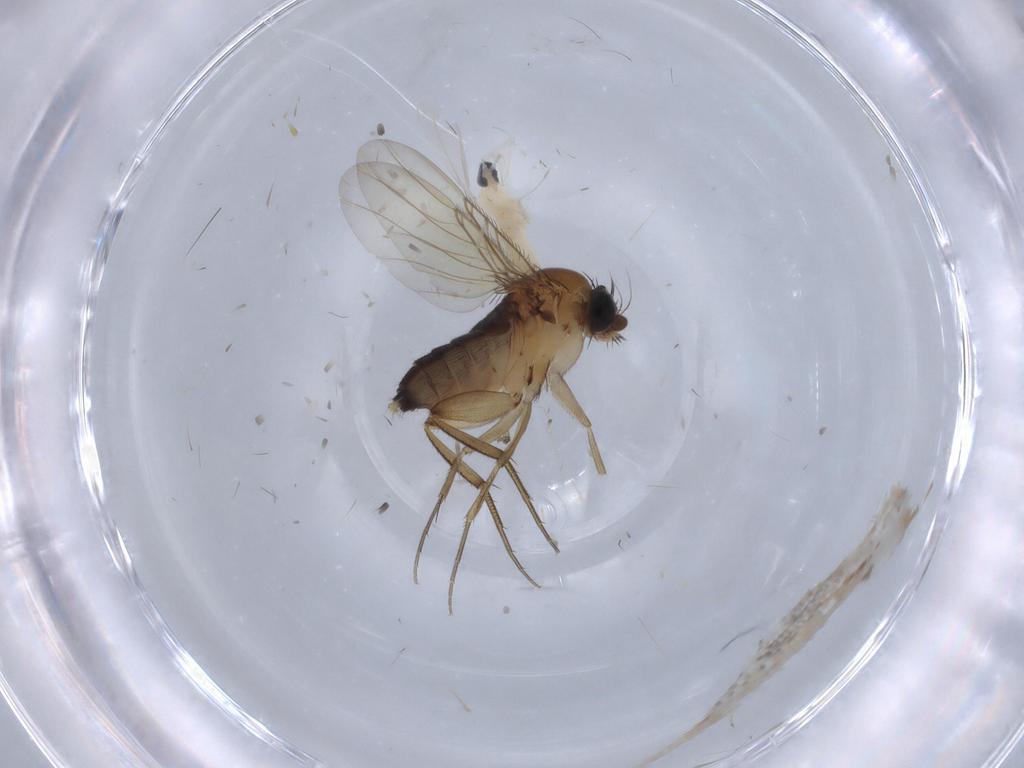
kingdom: Animalia
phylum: Arthropoda
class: Insecta
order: Diptera
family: Cecidomyiidae
